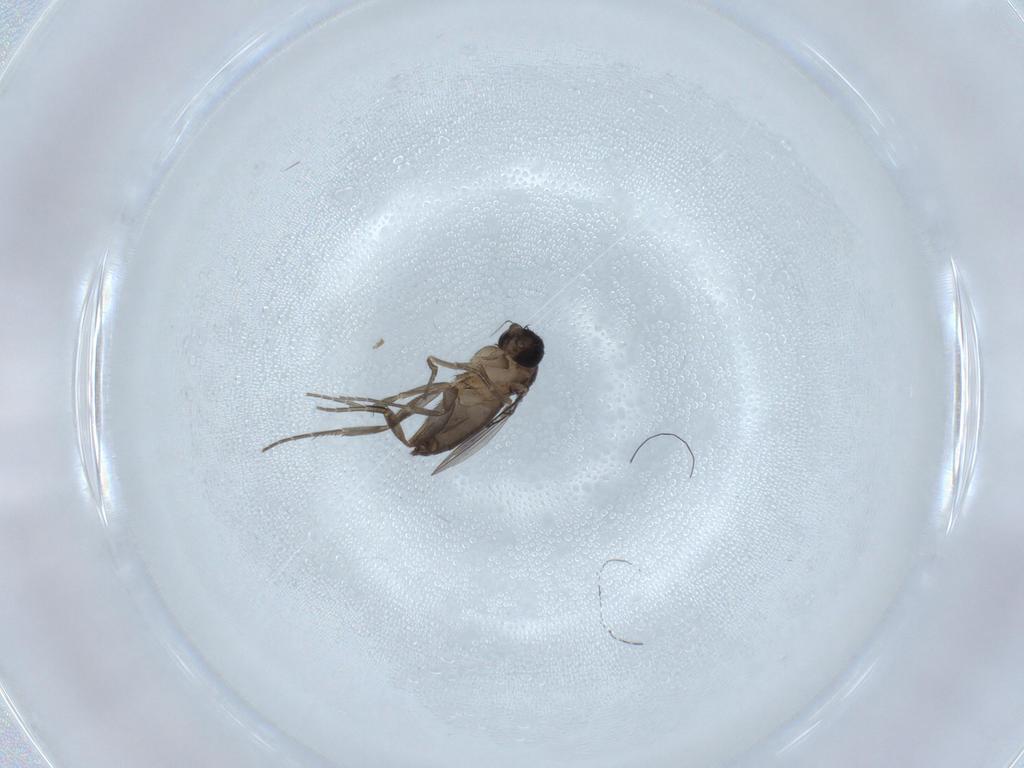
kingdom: Animalia
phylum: Arthropoda
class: Insecta
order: Diptera
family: Phoridae
